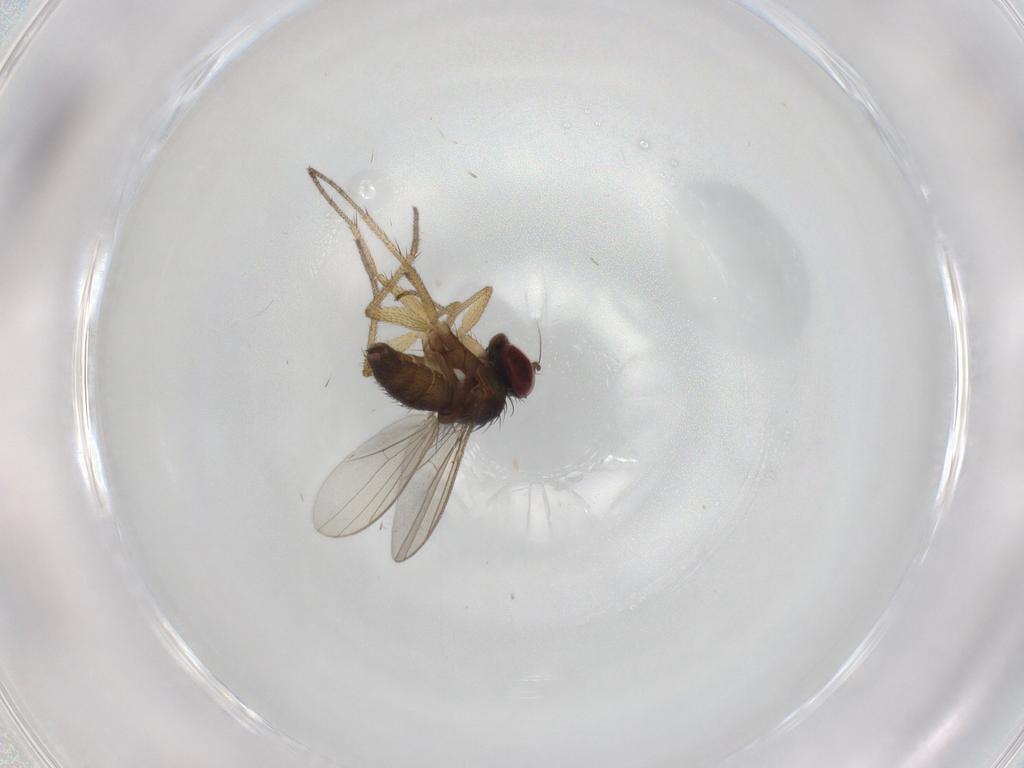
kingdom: Animalia
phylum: Arthropoda
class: Insecta
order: Diptera
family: Dolichopodidae
